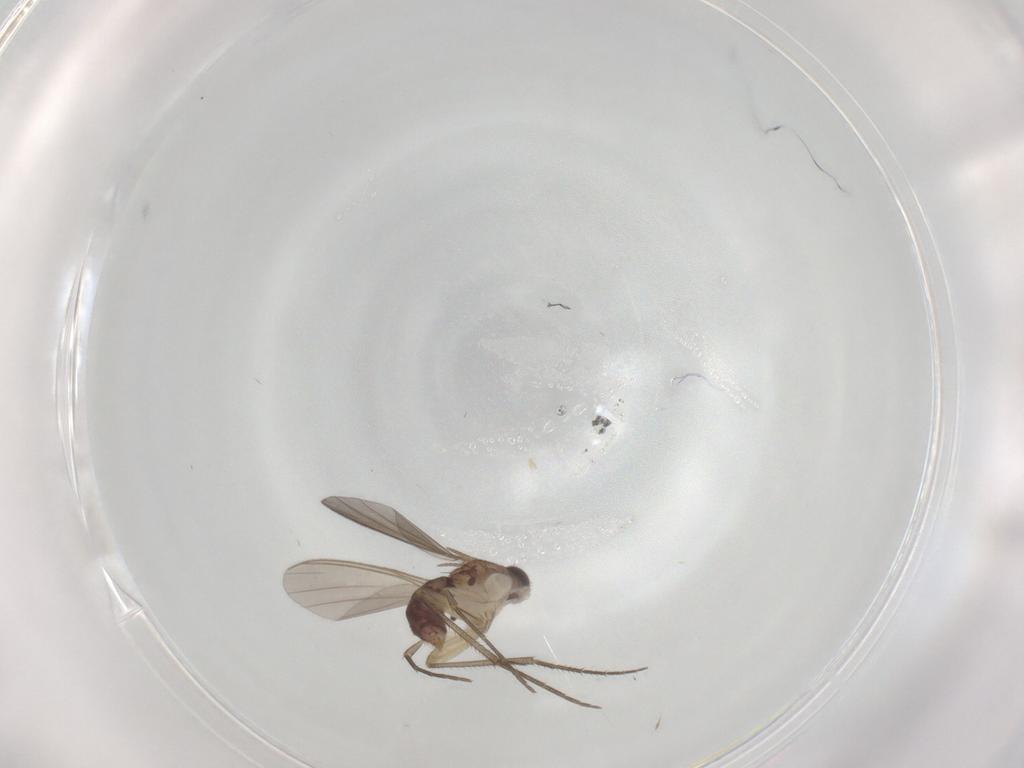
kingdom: Animalia
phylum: Arthropoda
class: Insecta
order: Diptera
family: Mycetophilidae
